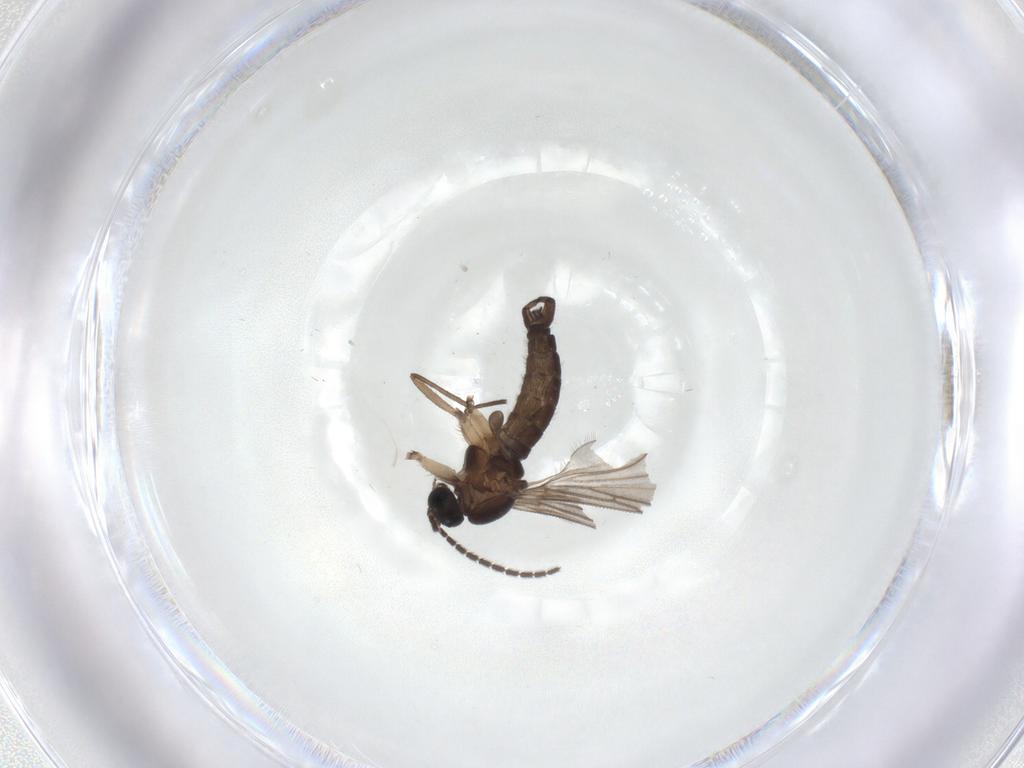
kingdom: Animalia
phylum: Arthropoda
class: Insecta
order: Diptera
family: Sciaridae
